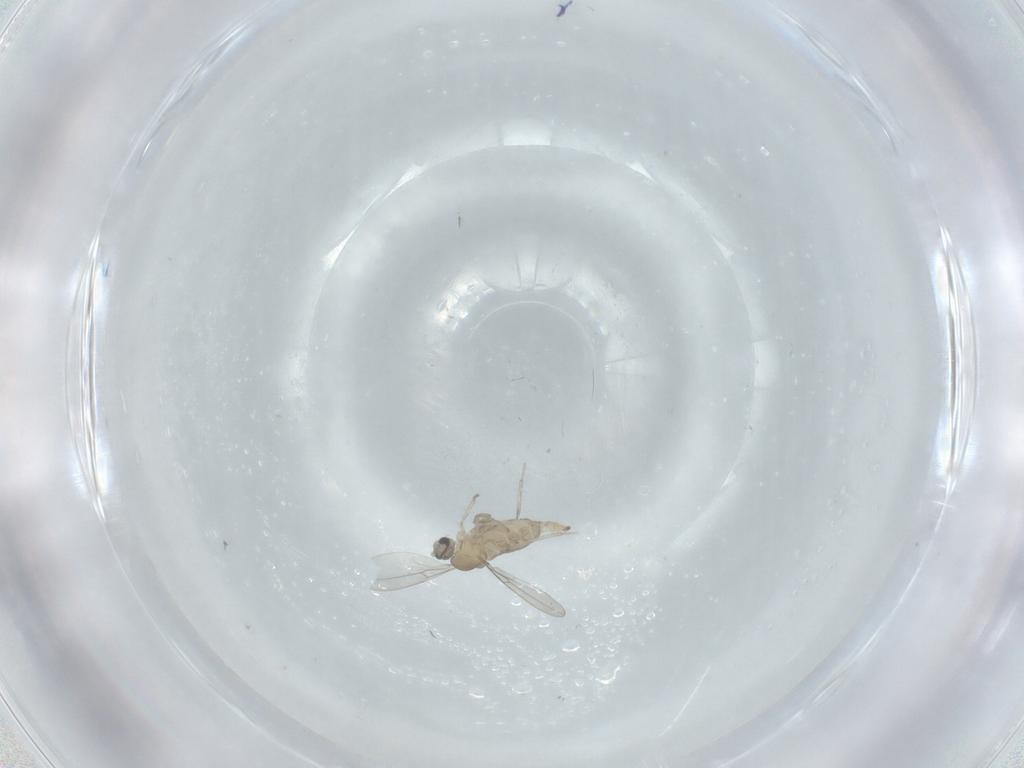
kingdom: Animalia
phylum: Arthropoda
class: Insecta
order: Diptera
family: Cecidomyiidae
